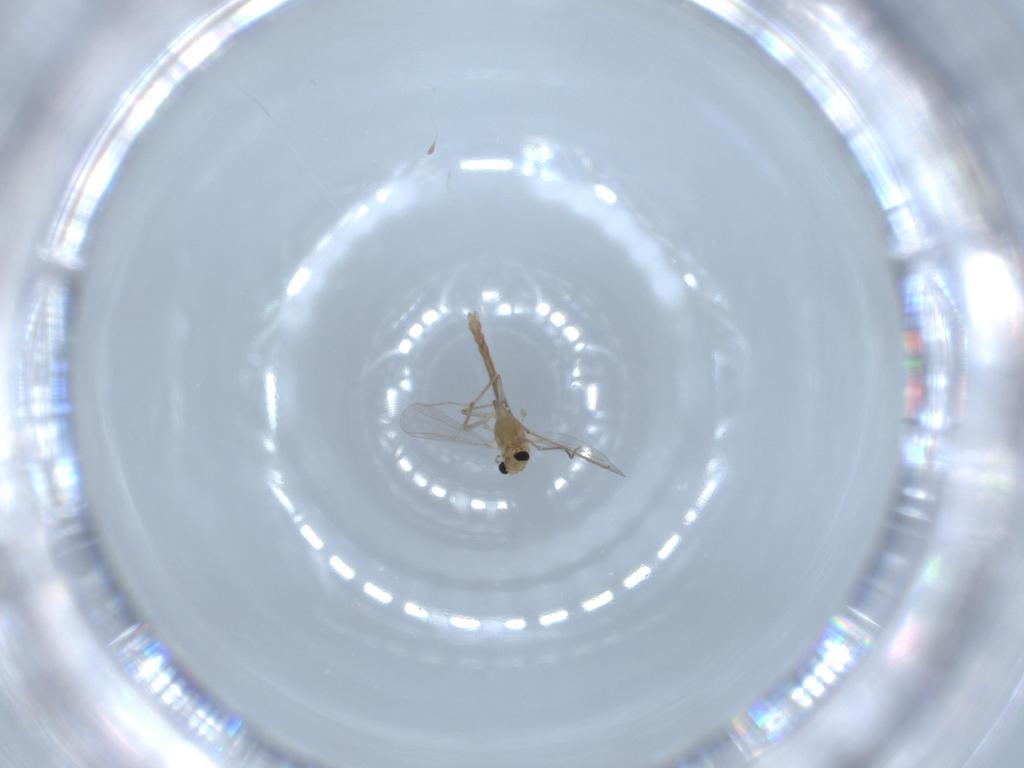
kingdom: Animalia
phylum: Arthropoda
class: Insecta
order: Diptera
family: Chironomidae
